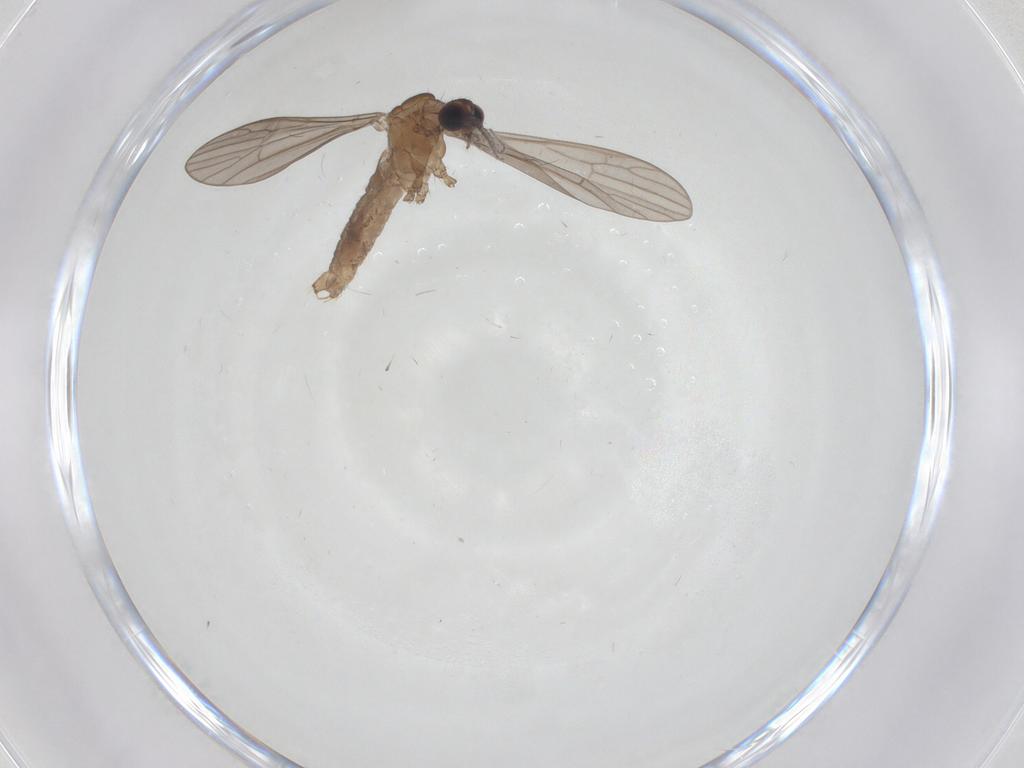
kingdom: Animalia
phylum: Arthropoda
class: Insecta
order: Diptera
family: Limoniidae
